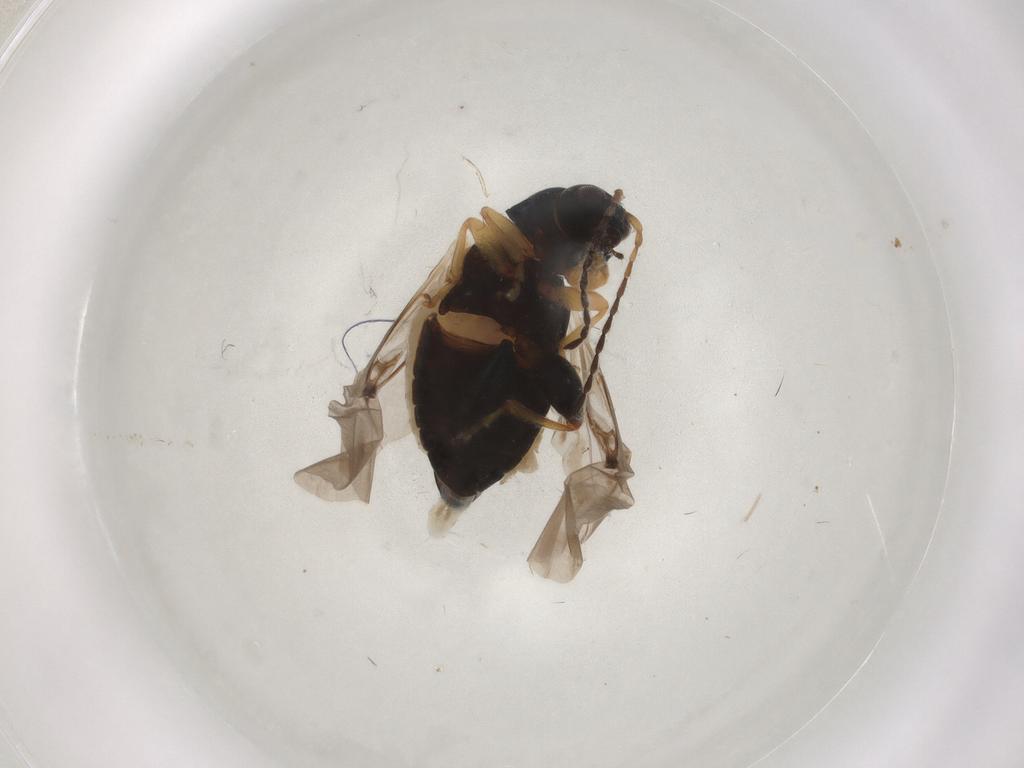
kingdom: Animalia
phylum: Arthropoda
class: Insecta
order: Coleoptera
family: Chrysomelidae
